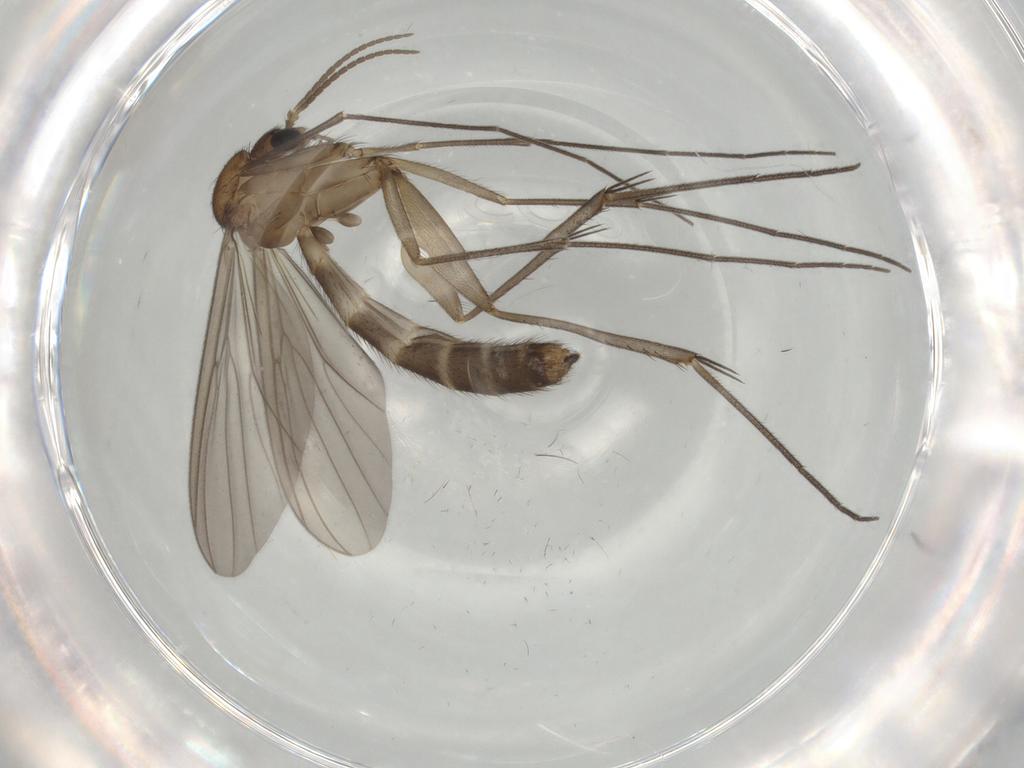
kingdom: Animalia
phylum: Arthropoda
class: Insecta
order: Diptera
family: Mycetophilidae
